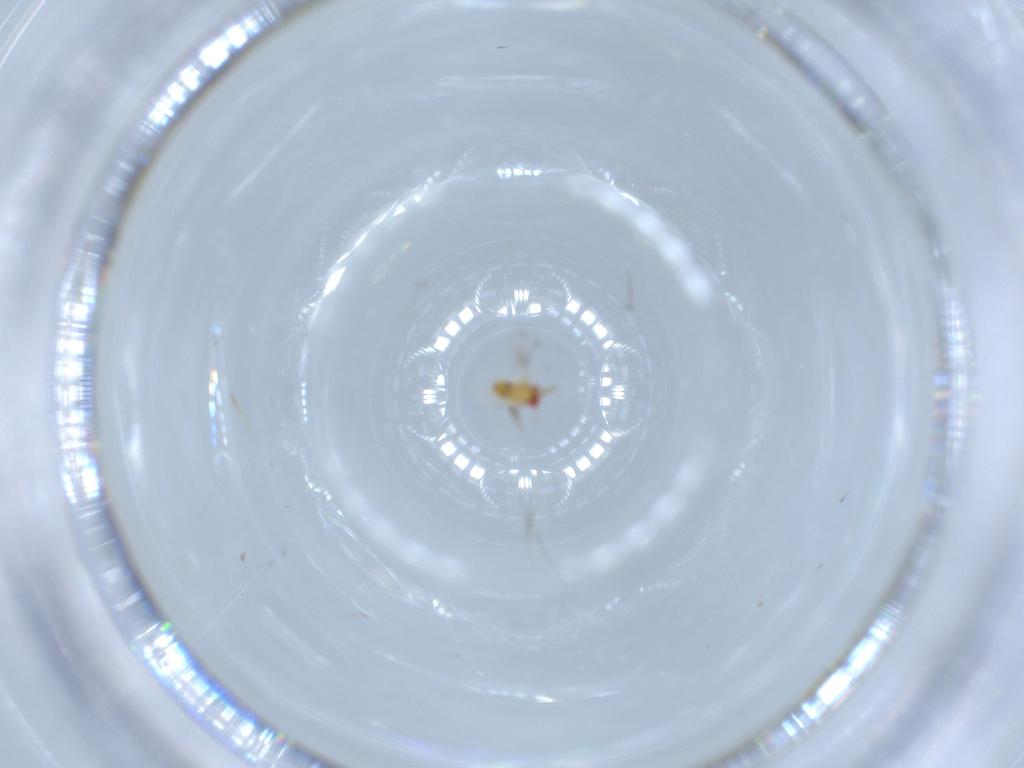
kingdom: Animalia
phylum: Arthropoda
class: Insecta
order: Hymenoptera
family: Trichogrammatidae
